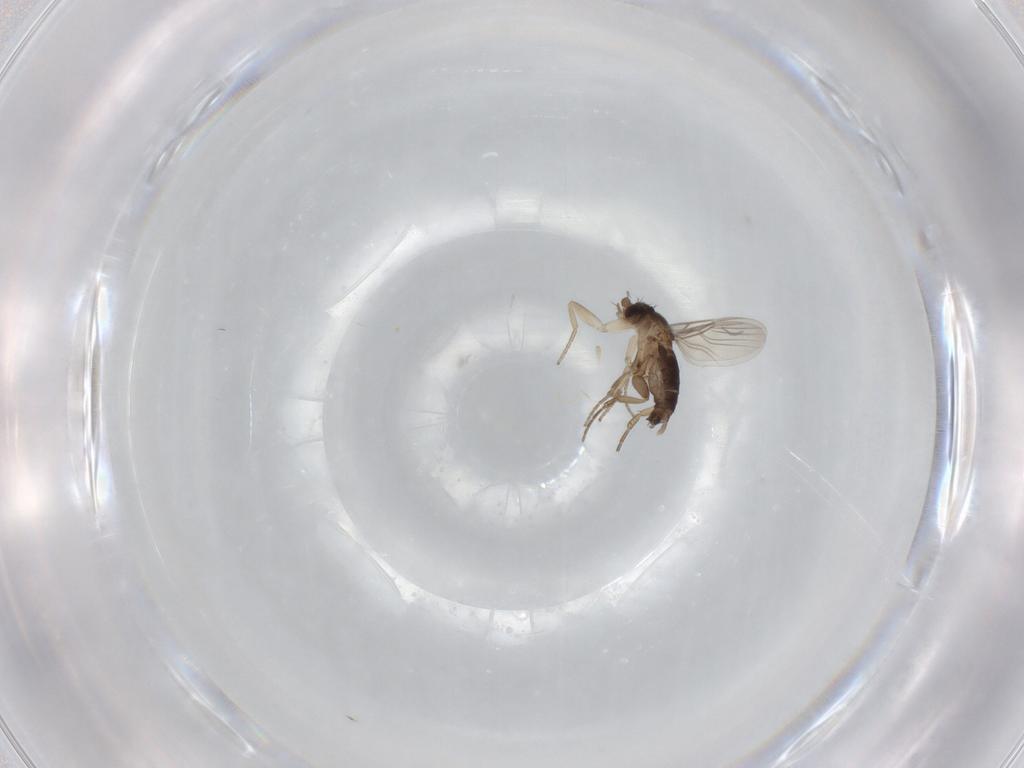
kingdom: Animalia
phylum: Arthropoda
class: Insecta
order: Diptera
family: Phoridae
